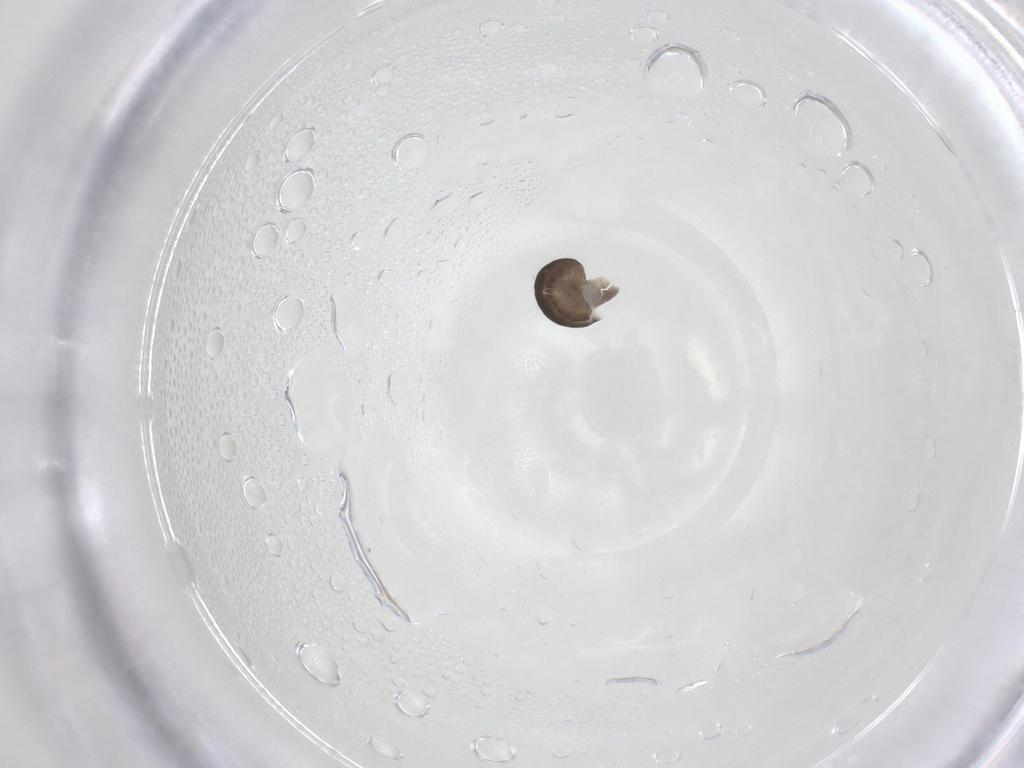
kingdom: Animalia
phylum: Arthropoda
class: Insecta
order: Hymenoptera
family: Dryinidae
